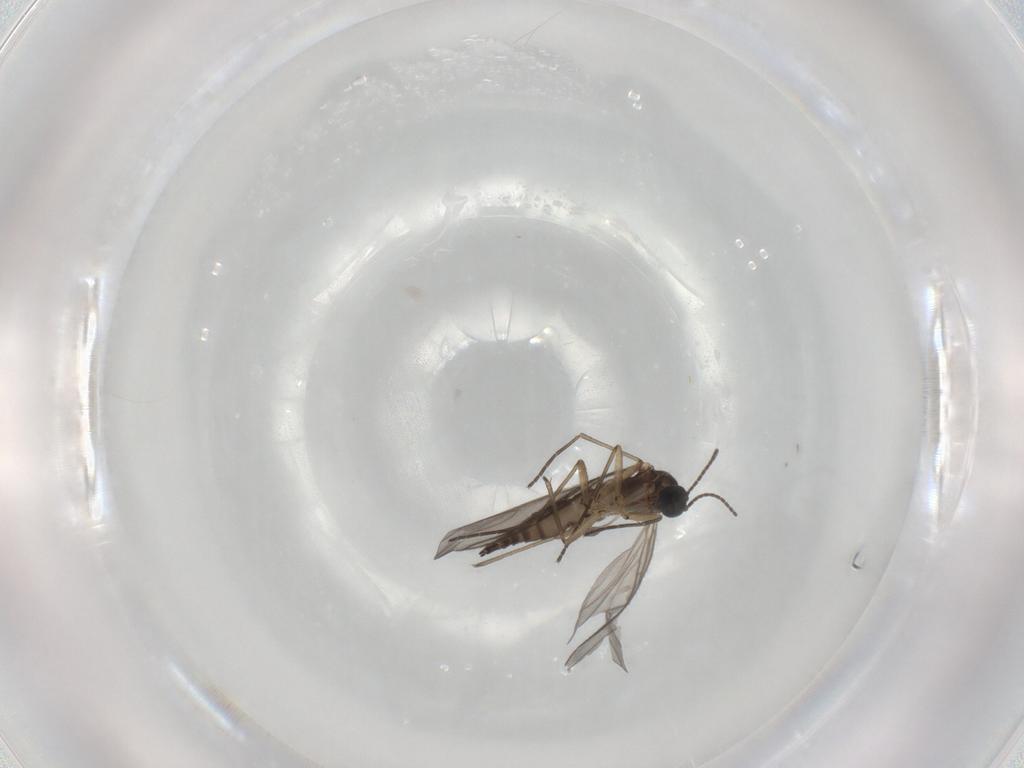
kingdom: Animalia
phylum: Arthropoda
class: Insecta
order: Diptera
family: Sciaridae
